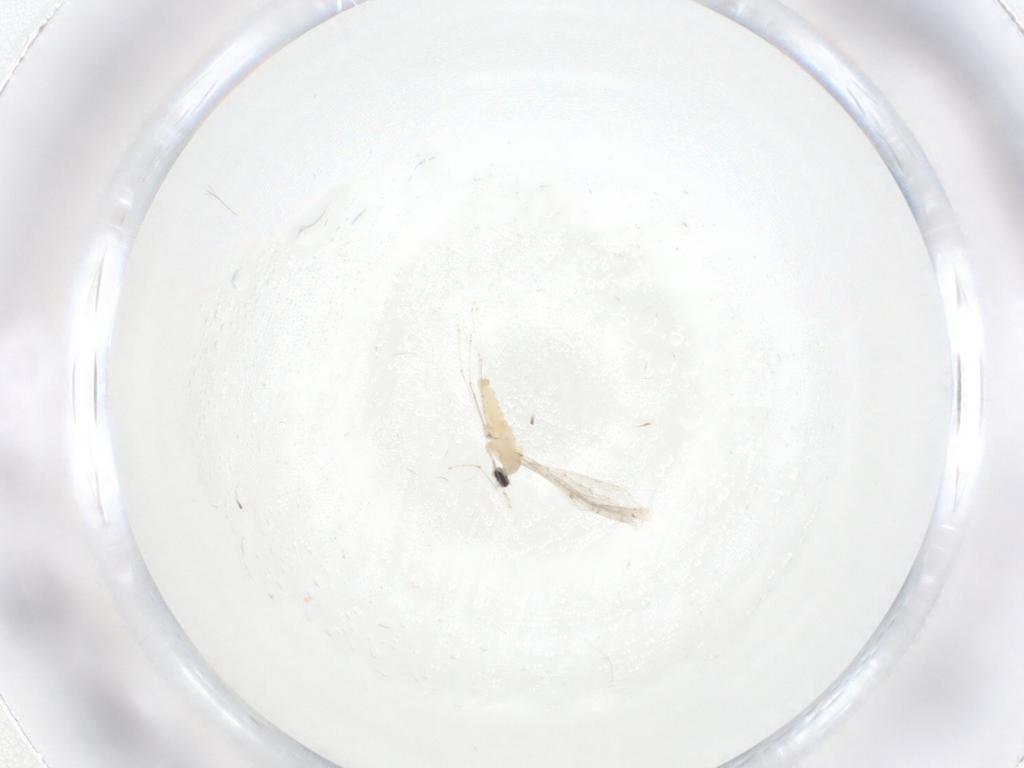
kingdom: Animalia
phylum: Arthropoda
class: Insecta
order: Diptera
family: Cecidomyiidae
